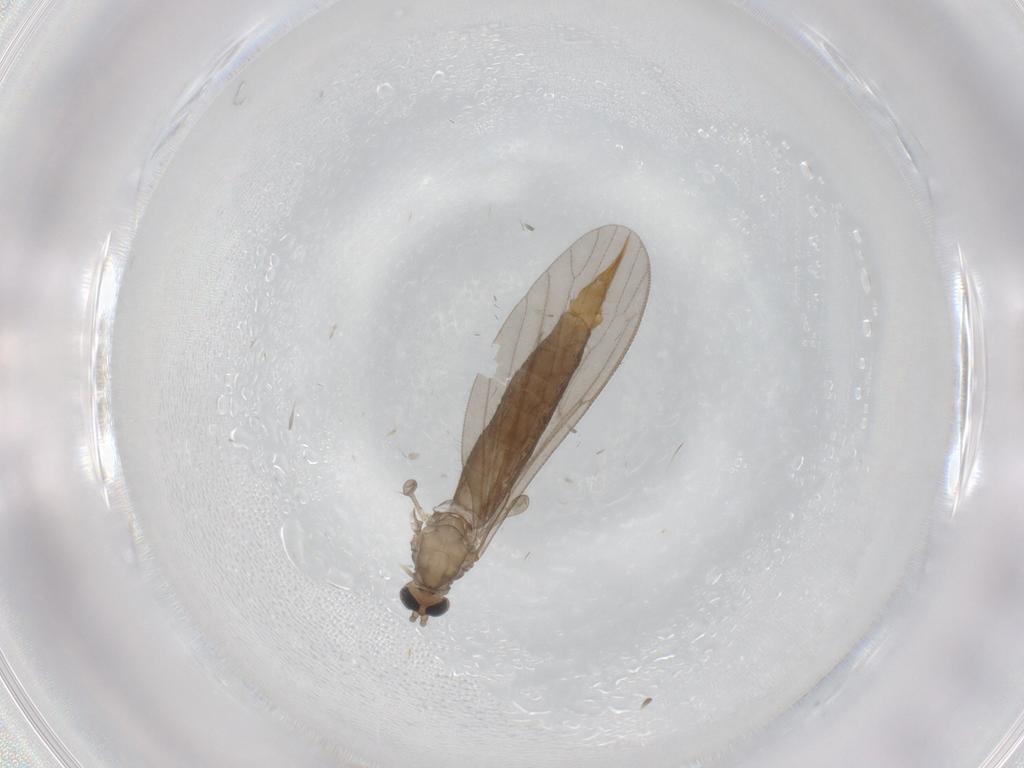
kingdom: Animalia
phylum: Arthropoda
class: Insecta
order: Diptera
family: Limoniidae
